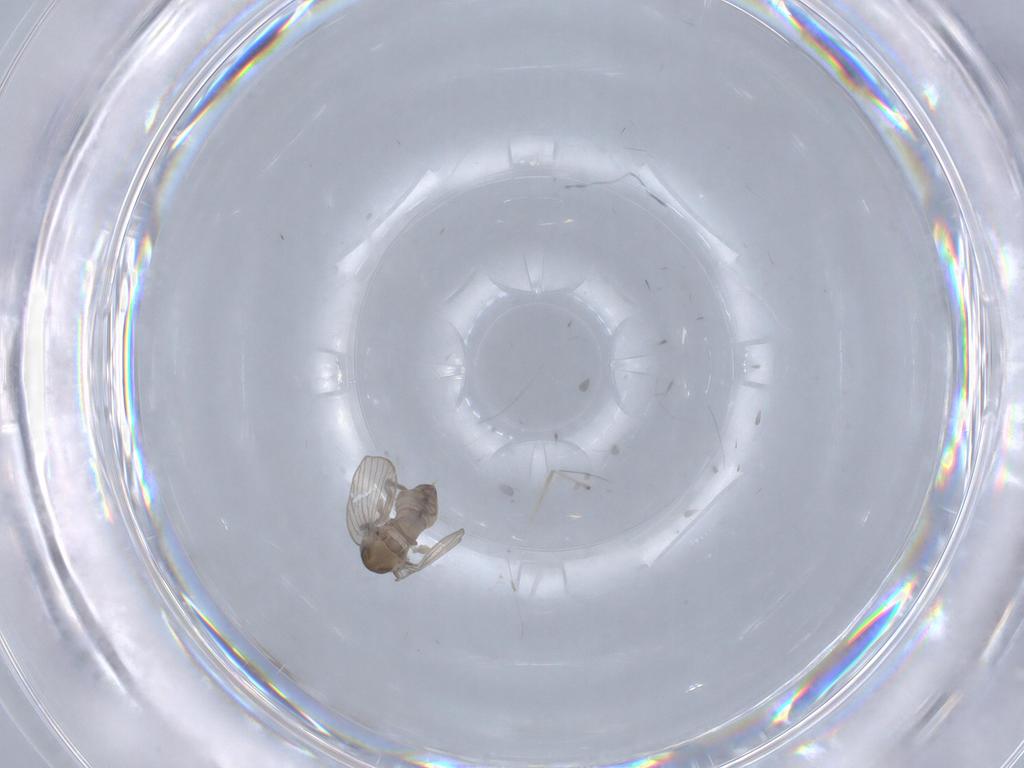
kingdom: Animalia
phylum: Arthropoda
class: Insecta
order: Diptera
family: Psychodidae
